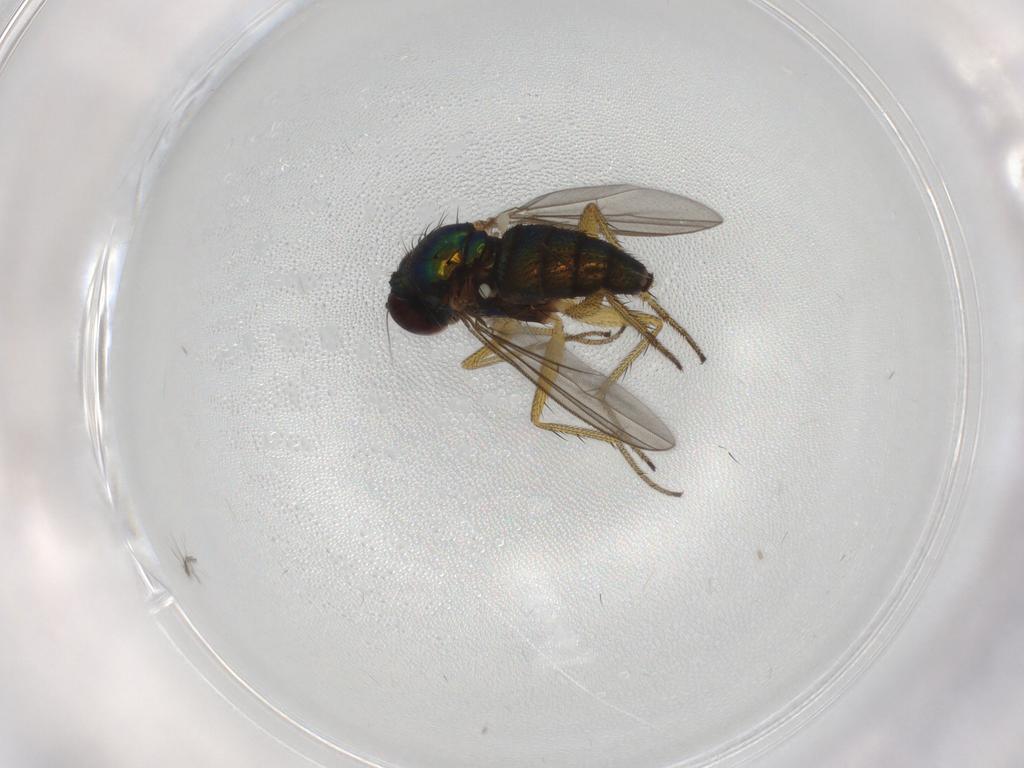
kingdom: Animalia
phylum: Arthropoda
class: Insecta
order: Diptera
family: Dolichopodidae
